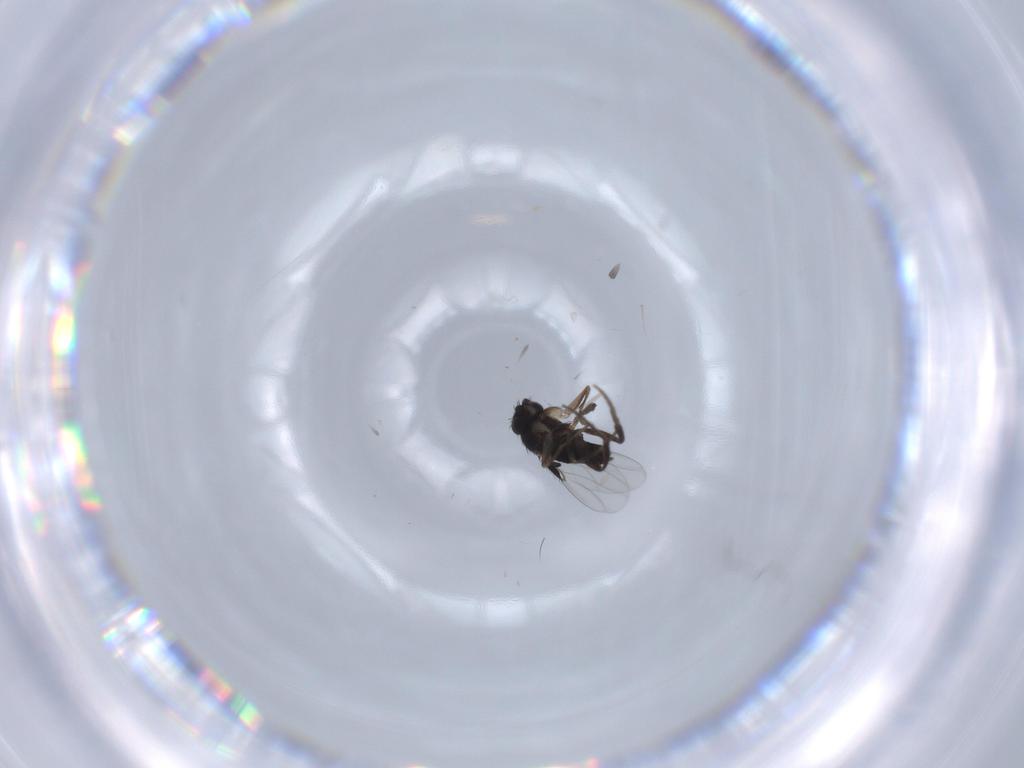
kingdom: Animalia
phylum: Arthropoda
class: Insecta
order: Diptera
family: Phoridae
